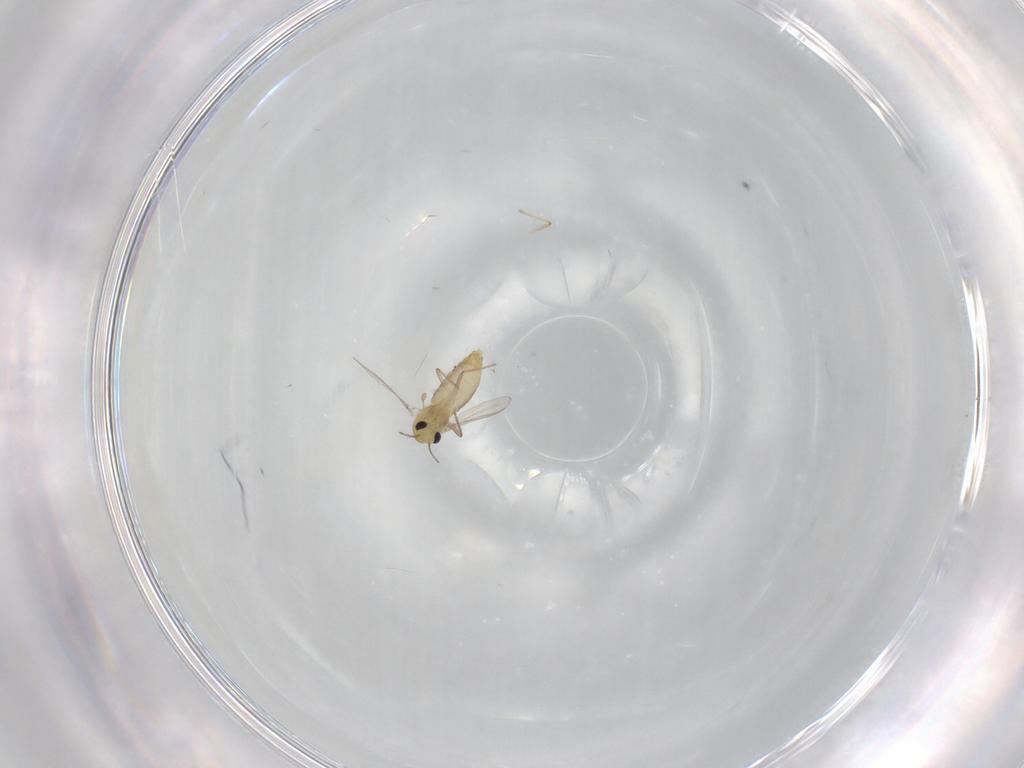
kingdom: Animalia
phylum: Arthropoda
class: Insecta
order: Diptera
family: Chironomidae
